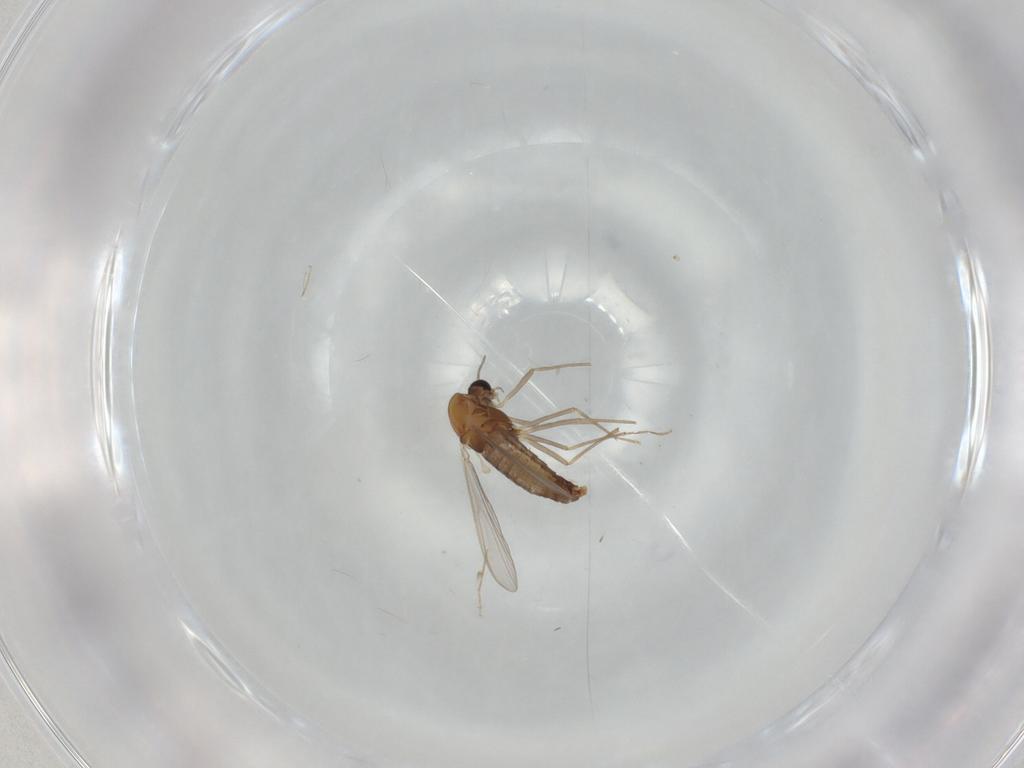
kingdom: Animalia
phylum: Arthropoda
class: Insecta
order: Diptera
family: Chironomidae
